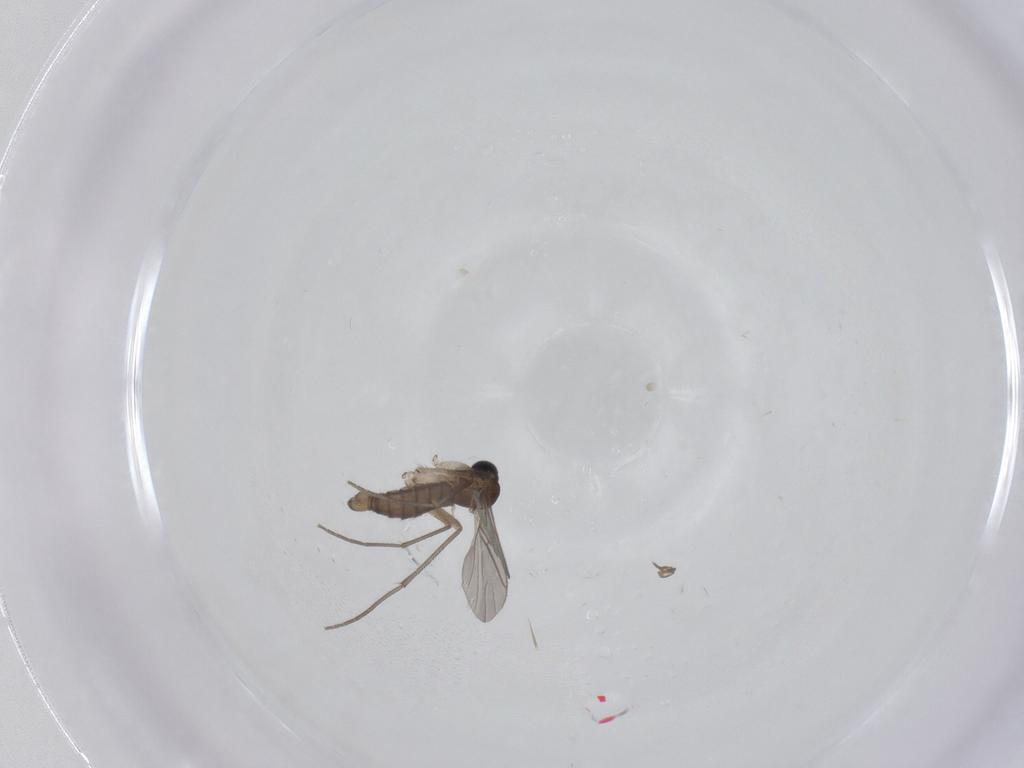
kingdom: Animalia
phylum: Arthropoda
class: Insecta
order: Diptera
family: Sciaridae
